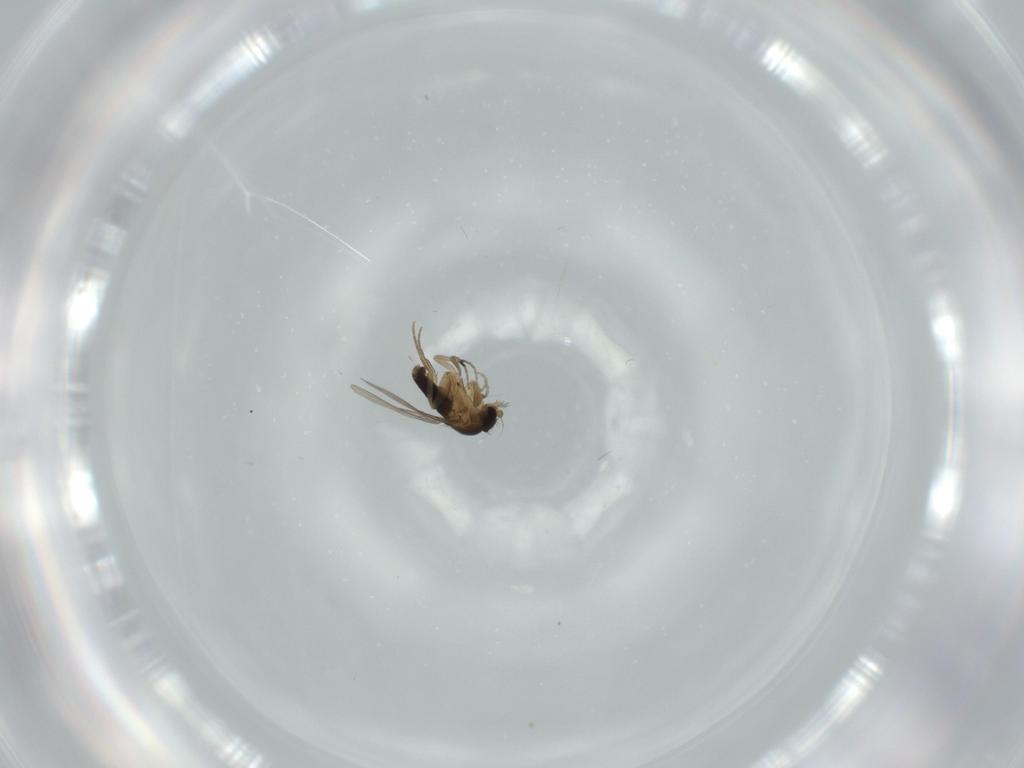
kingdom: Animalia
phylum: Arthropoda
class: Insecta
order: Diptera
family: Phoridae
